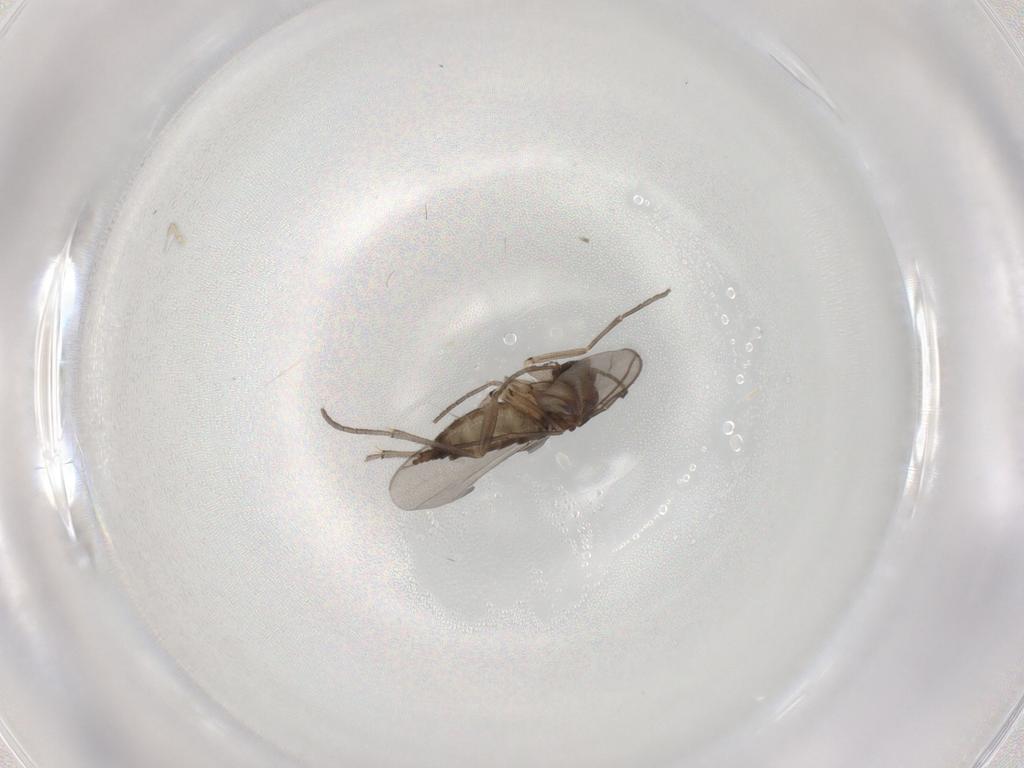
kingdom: Animalia
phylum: Arthropoda
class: Insecta
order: Diptera
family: Sciaridae
